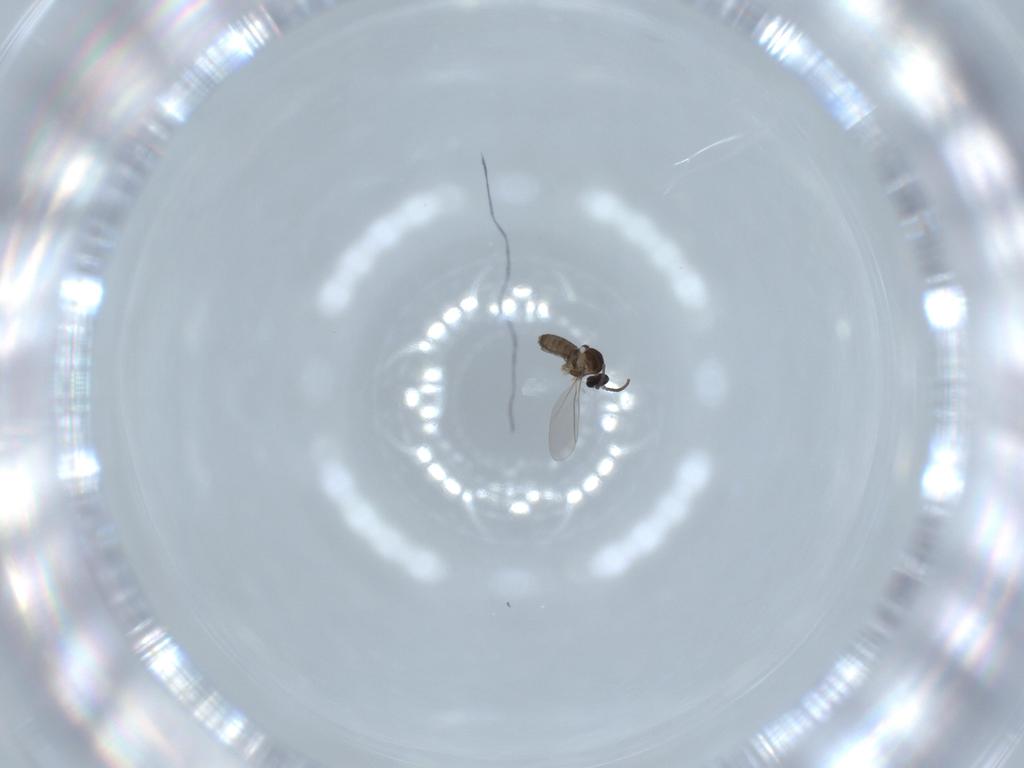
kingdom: Animalia
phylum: Arthropoda
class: Insecta
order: Diptera
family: Cecidomyiidae
